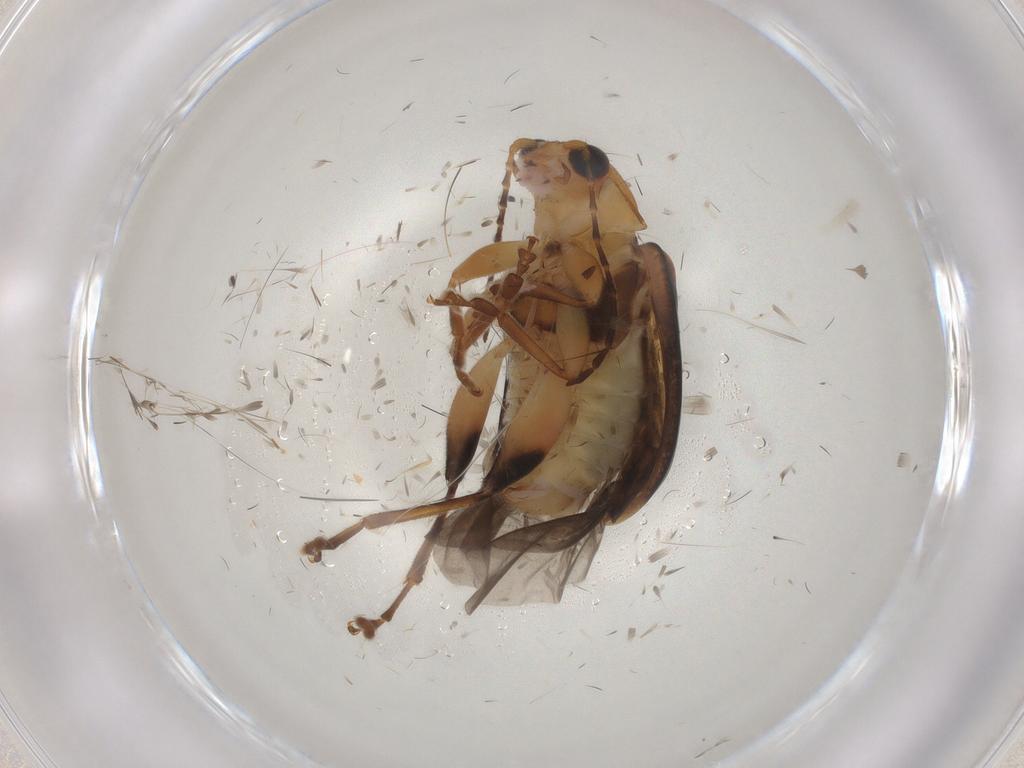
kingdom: Animalia
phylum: Arthropoda
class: Insecta
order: Coleoptera
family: Chrysomelidae
